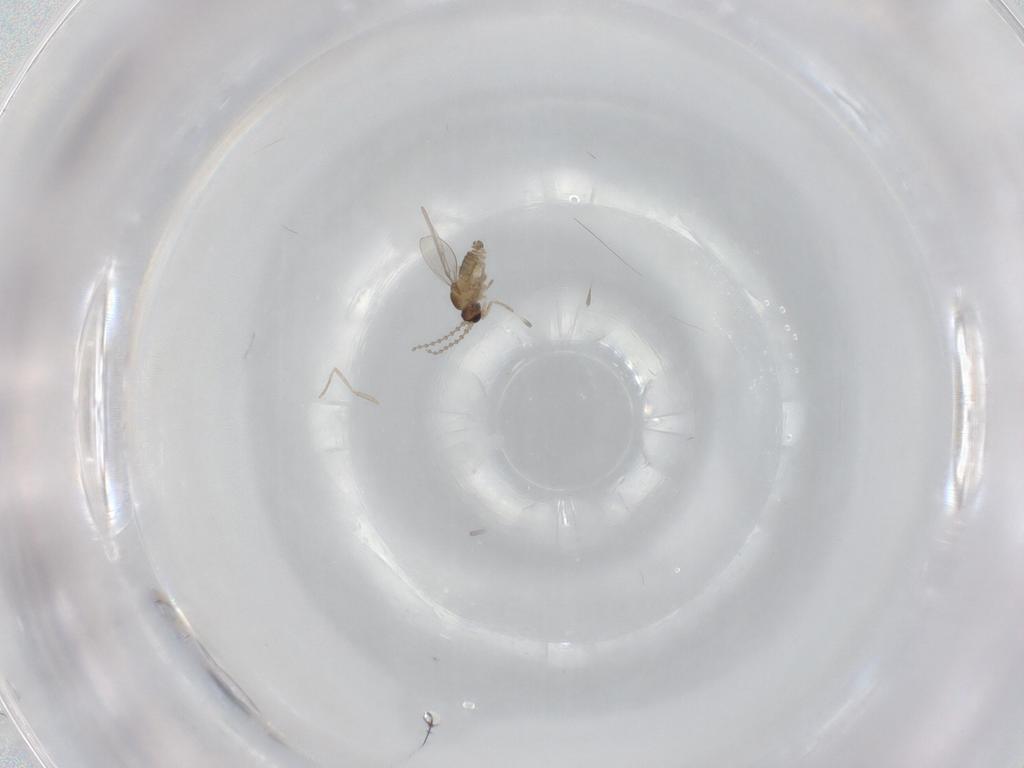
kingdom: Animalia
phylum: Arthropoda
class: Insecta
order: Diptera
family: Cecidomyiidae
